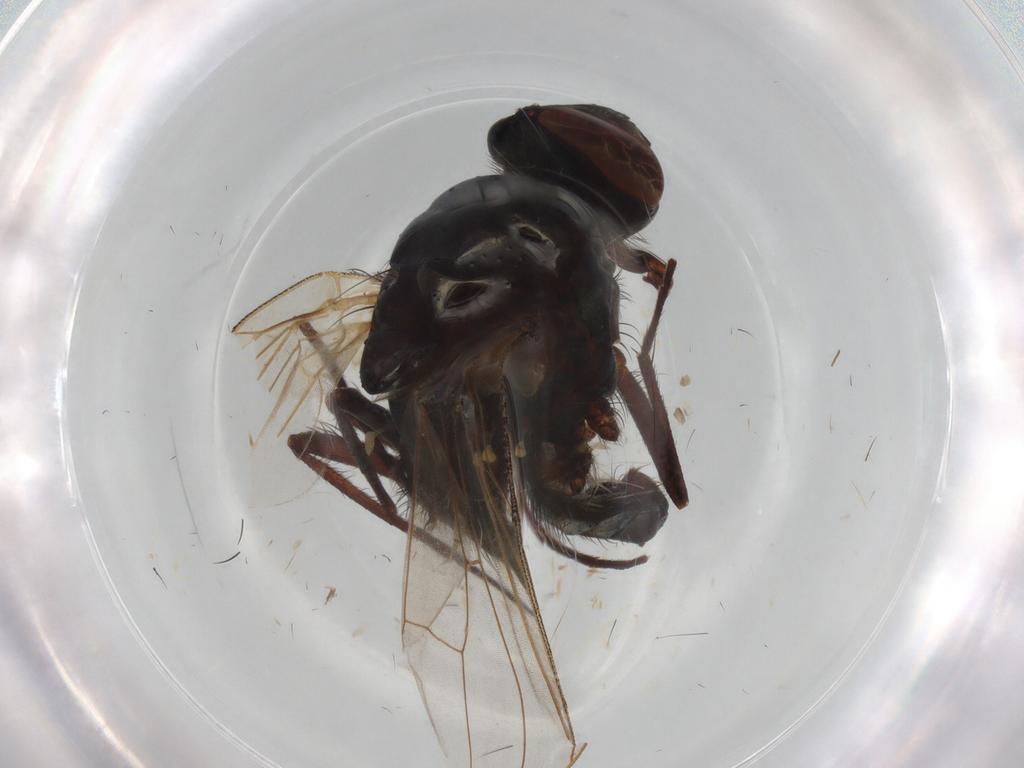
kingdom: Animalia
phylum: Arthropoda
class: Insecta
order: Diptera
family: Anthomyiidae
